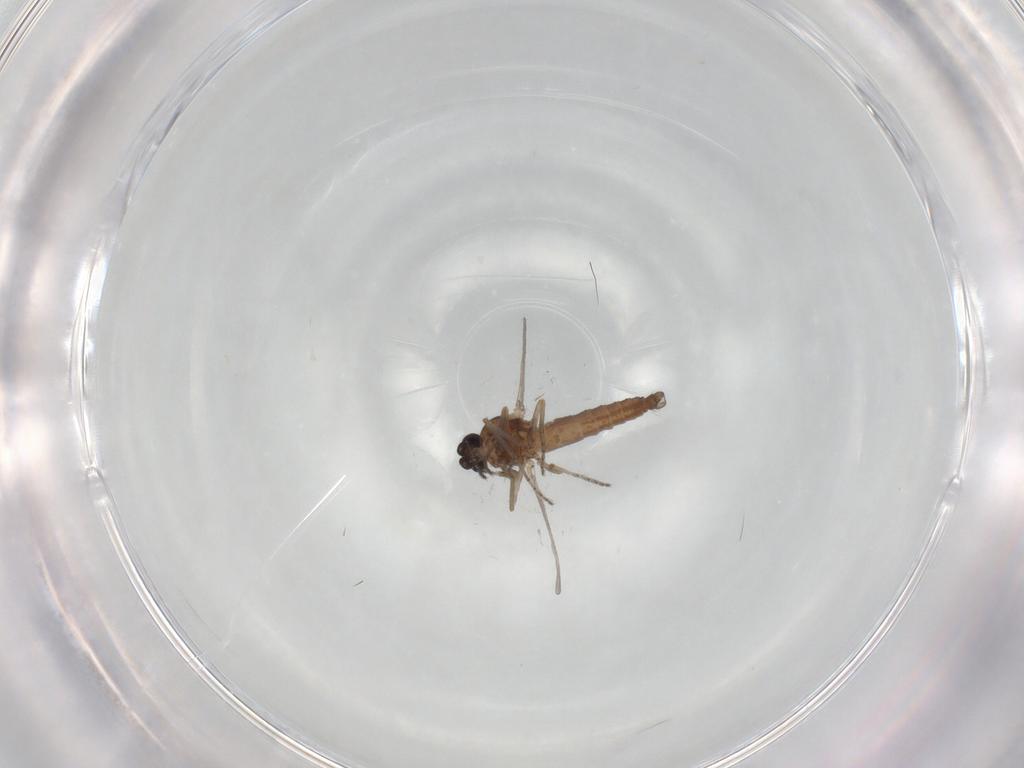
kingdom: Animalia
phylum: Arthropoda
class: Insecta
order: Diptera
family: Ceratopogonidae
